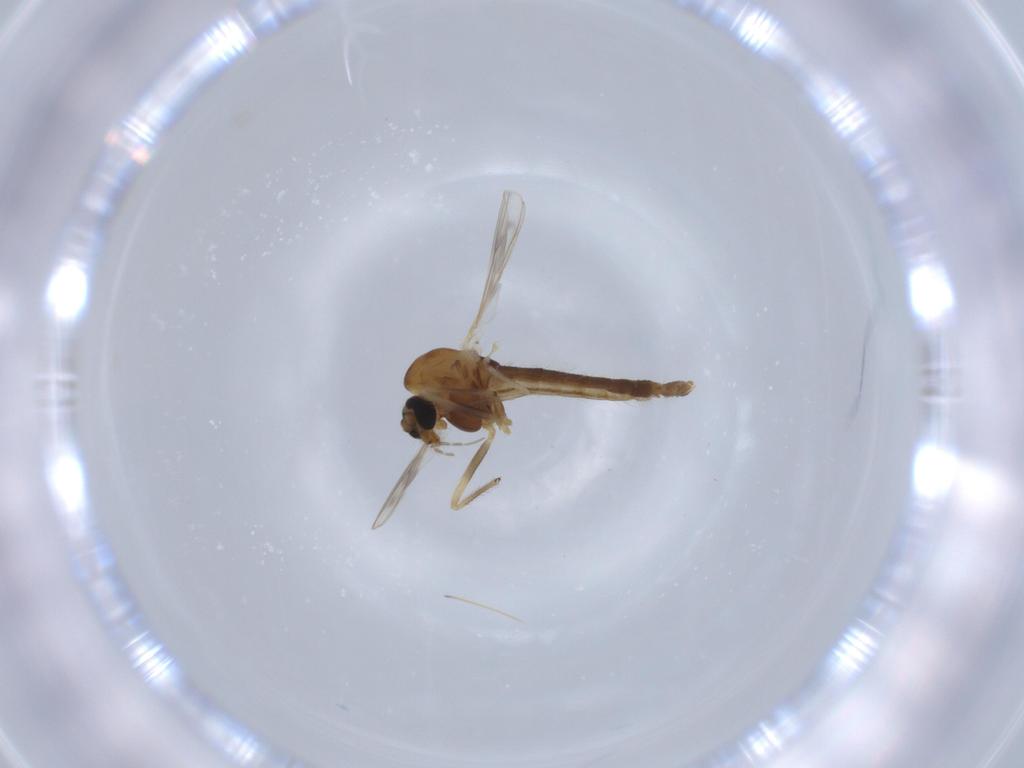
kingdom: Animalia
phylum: Arthropoda
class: Insecta
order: Diptera
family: Chironomidae
